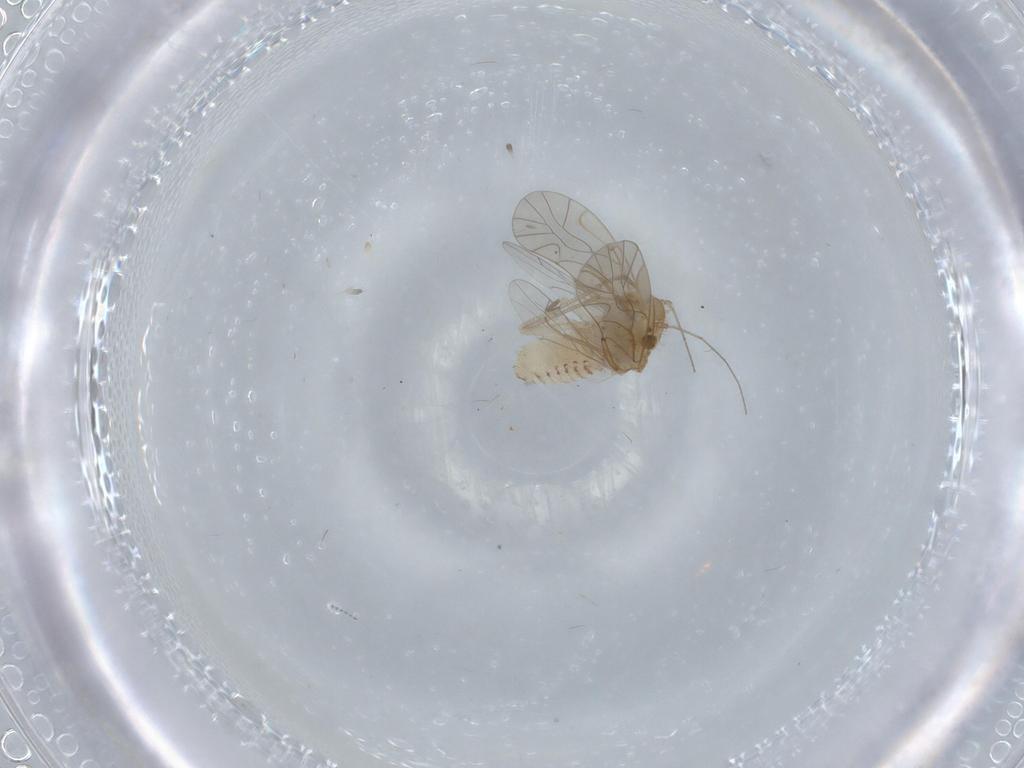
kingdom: Animalia
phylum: Arthropoda
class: Insecta
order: Psocodea
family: Lachesillidae
